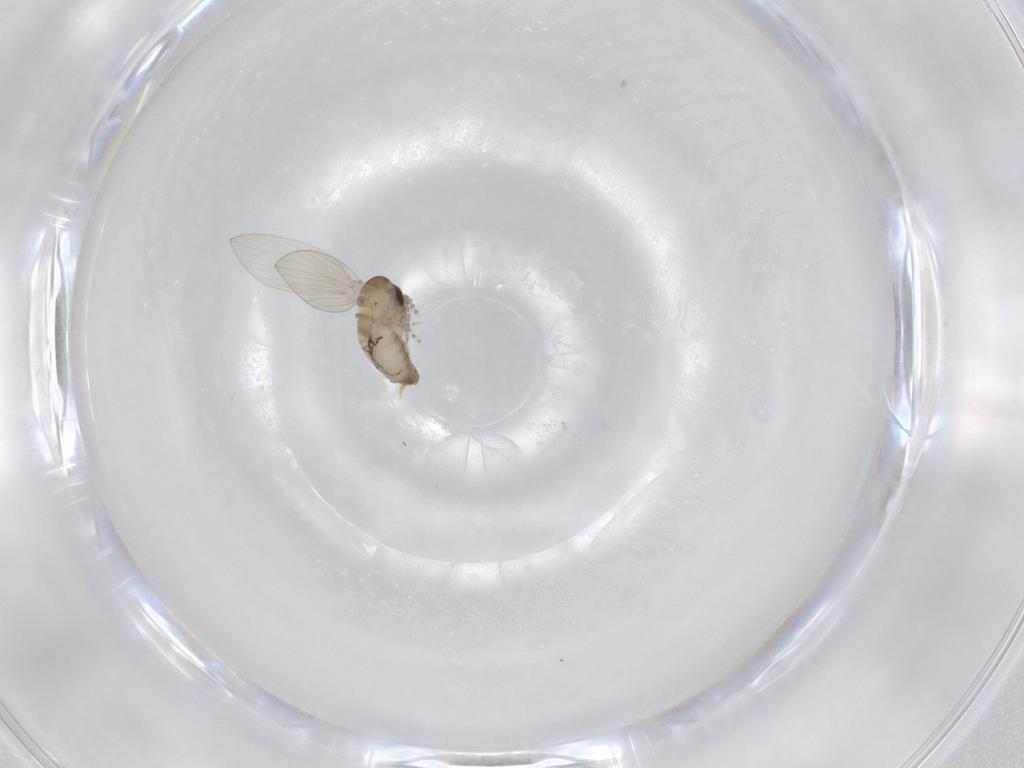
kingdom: Animalia
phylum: Arthropoda
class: Insecta
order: Diptera
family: Psychodidae
